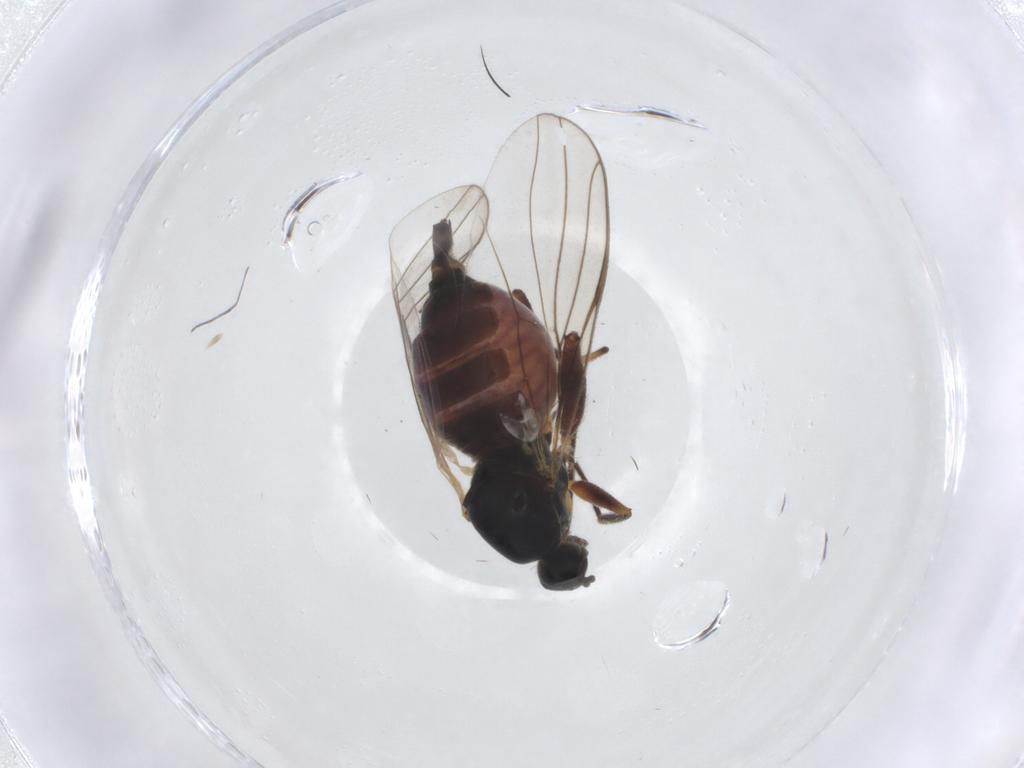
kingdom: Animalia
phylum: Arthropoda
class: Insecta
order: Diptera
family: Hybotidae
